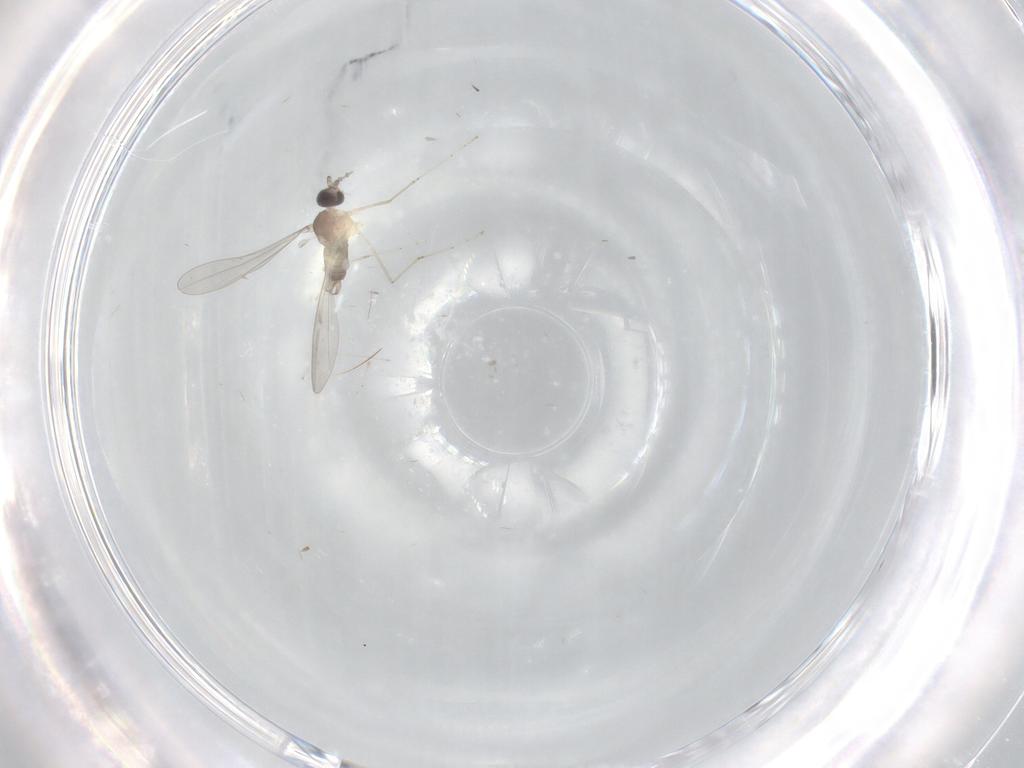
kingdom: Animalia
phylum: Arthropoda
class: Insecta
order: Diptera
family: Cecidomyiidae
